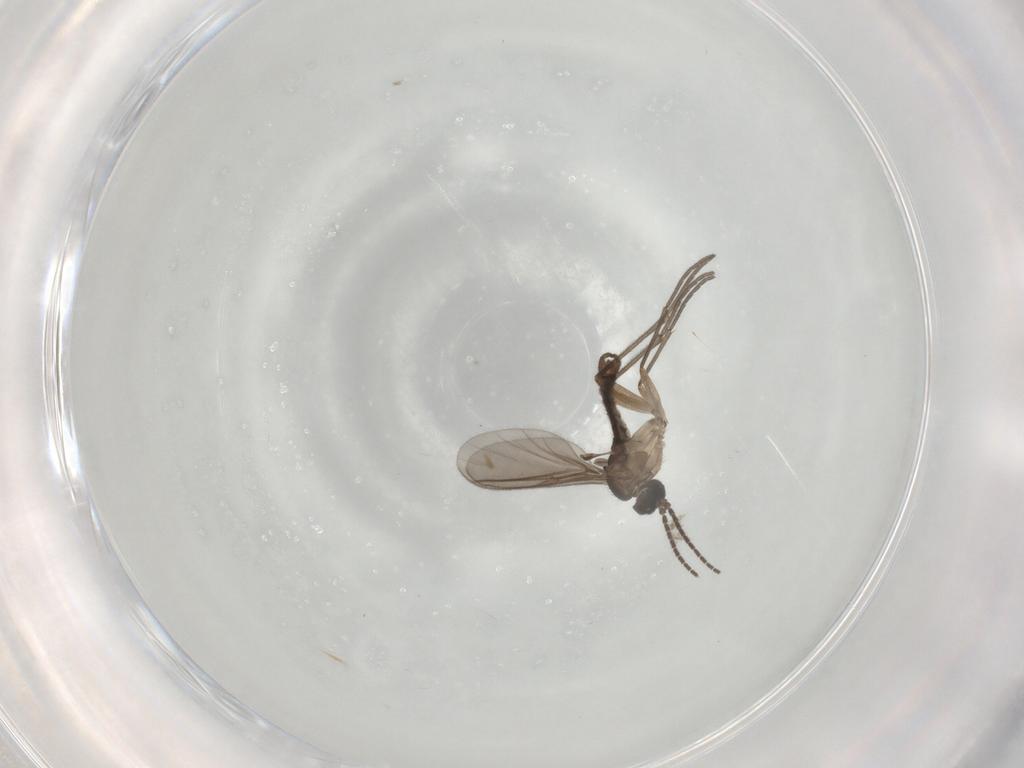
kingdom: Animalia
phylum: Arthropoda
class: Insecta
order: Diptera
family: Sciaridae
